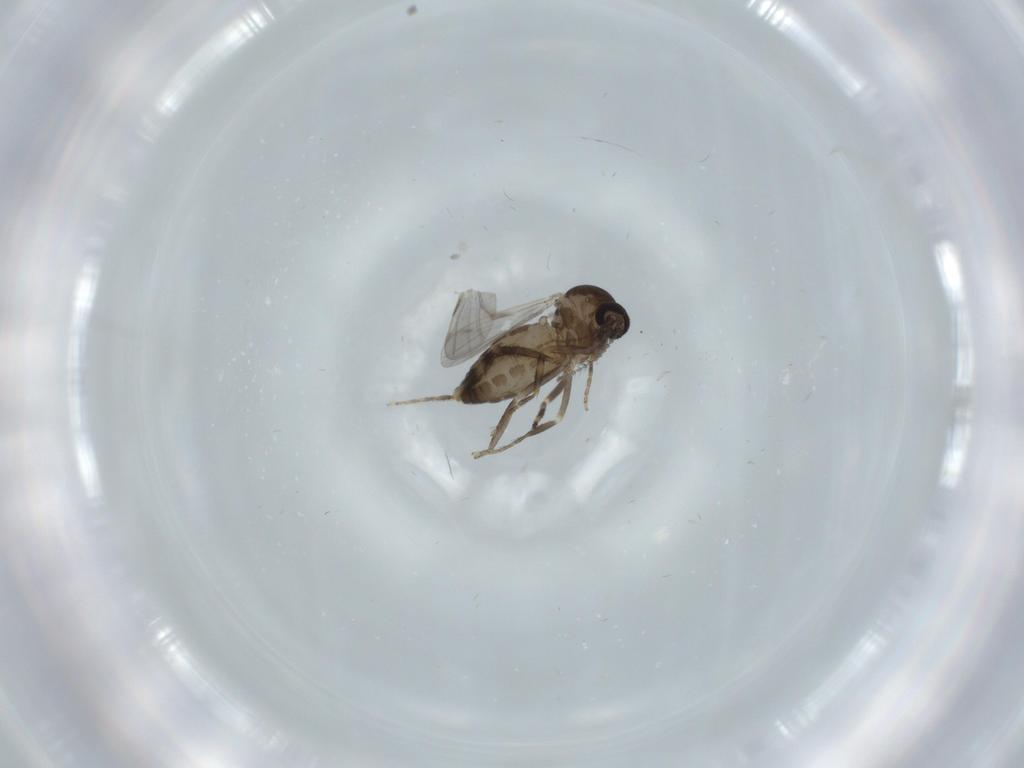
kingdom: Animalia
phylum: Arthropoda
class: Insecta
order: Diptera
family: Ceratopogonidae
